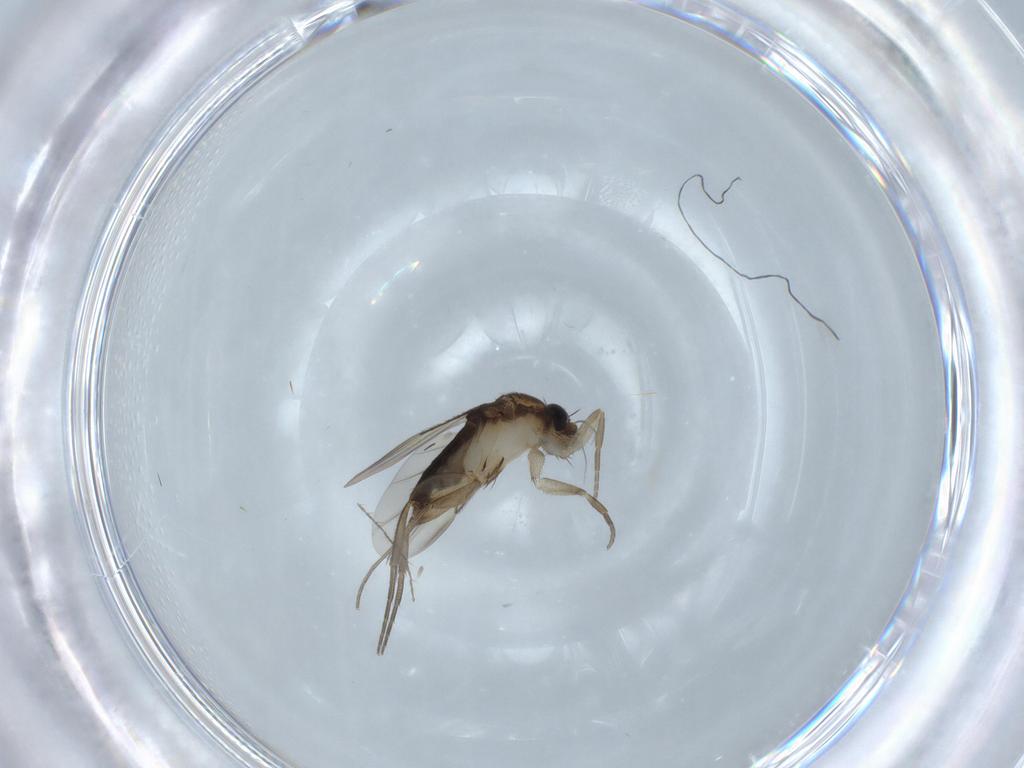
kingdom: Animalia
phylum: Arthropoda
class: Insecta
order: Diptera
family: Phoridae
